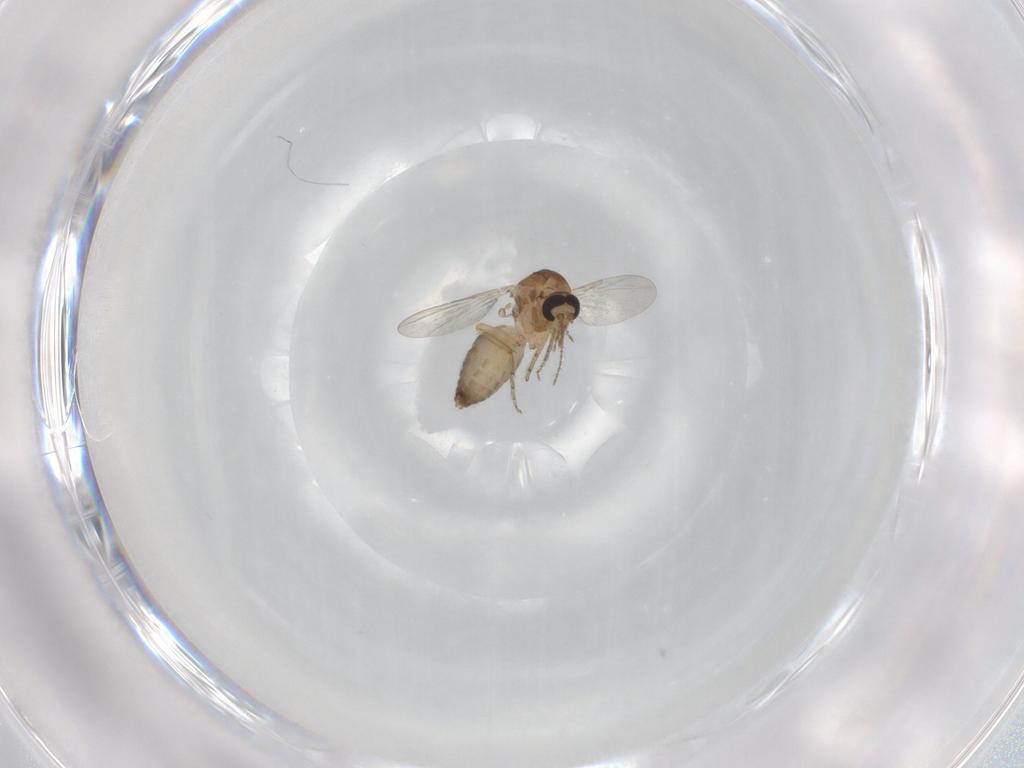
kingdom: Animalia
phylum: Arthropoda
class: Insecta
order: Diptera
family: Ceratopogonidae
